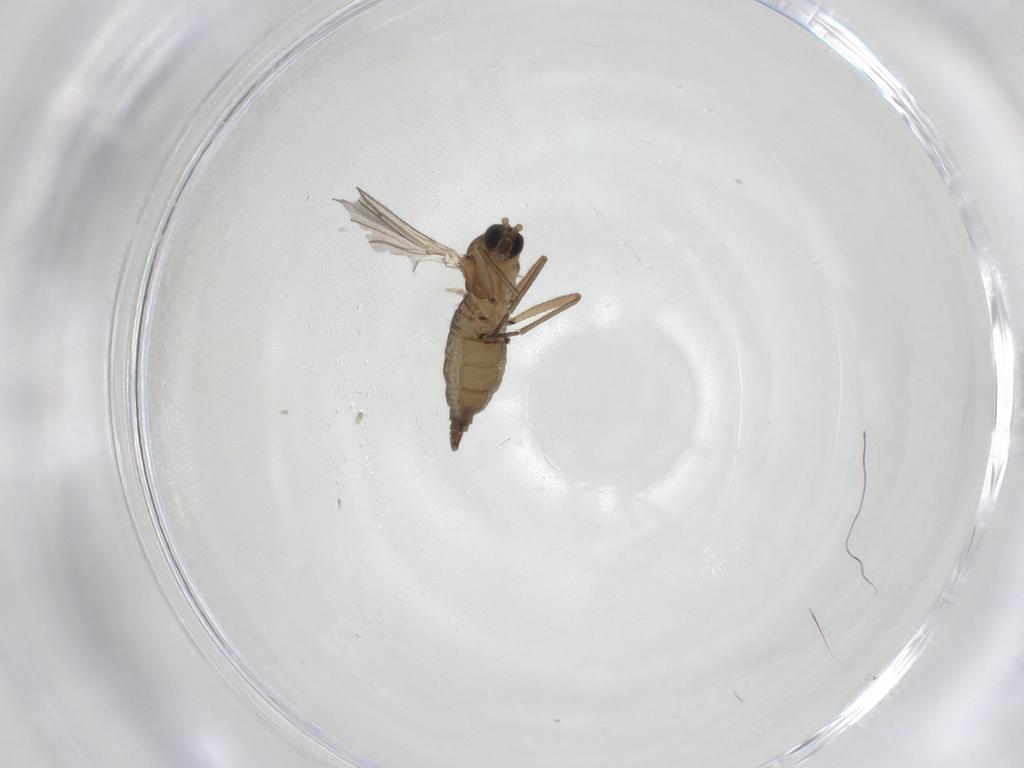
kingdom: Animalia
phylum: Arthropoda
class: Insecta
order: Diptera
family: Sciaridae
